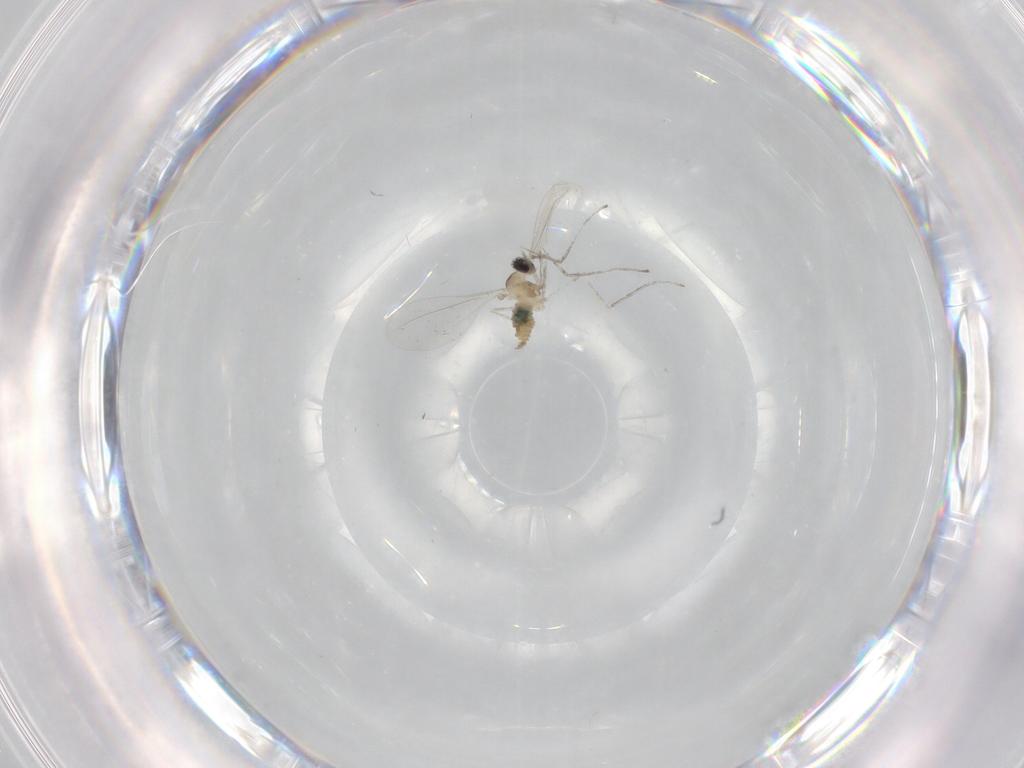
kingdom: Animalia
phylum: Arthropoda
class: Insecta
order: Diptera
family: Cecidomyiidae
